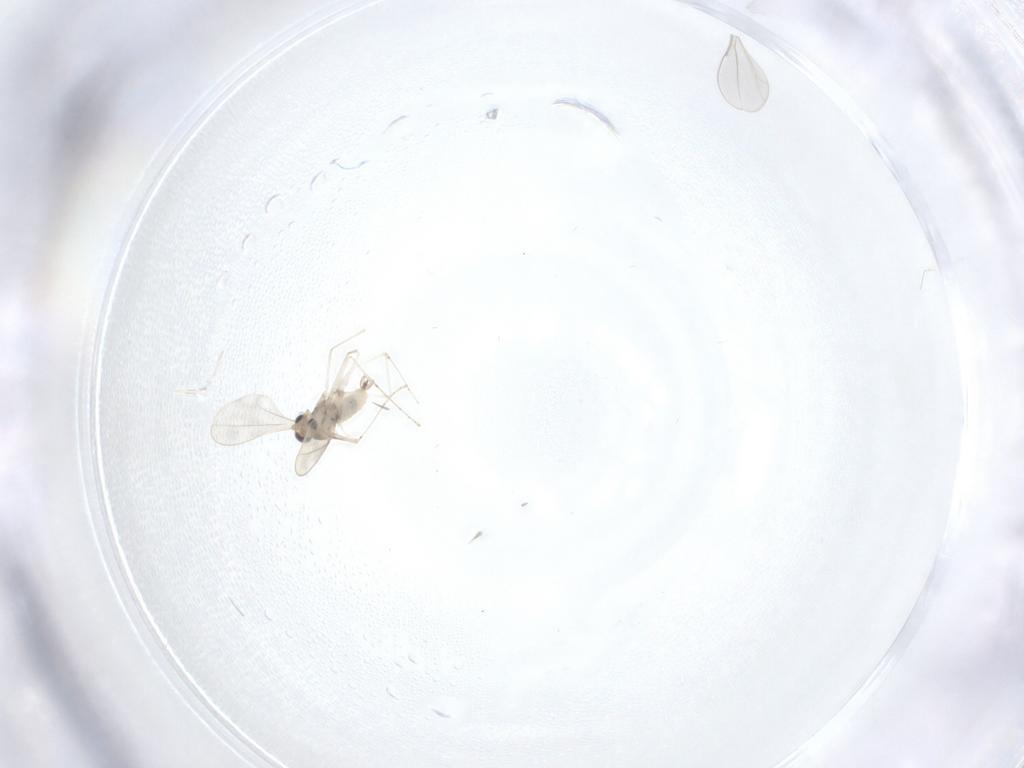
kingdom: Animalia
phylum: Arthropoda
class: Insecta
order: Diptera
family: Cecidomyiidae
